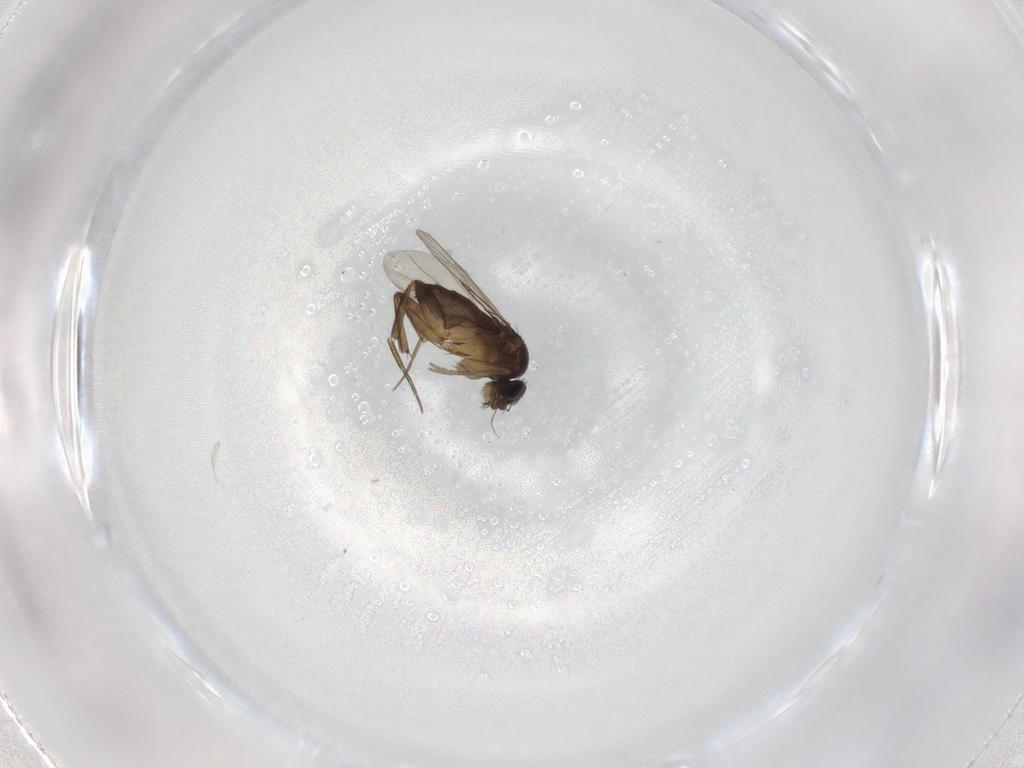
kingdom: Animalia
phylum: Arthropoda
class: Insecta
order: Diptera
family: Phoridae
